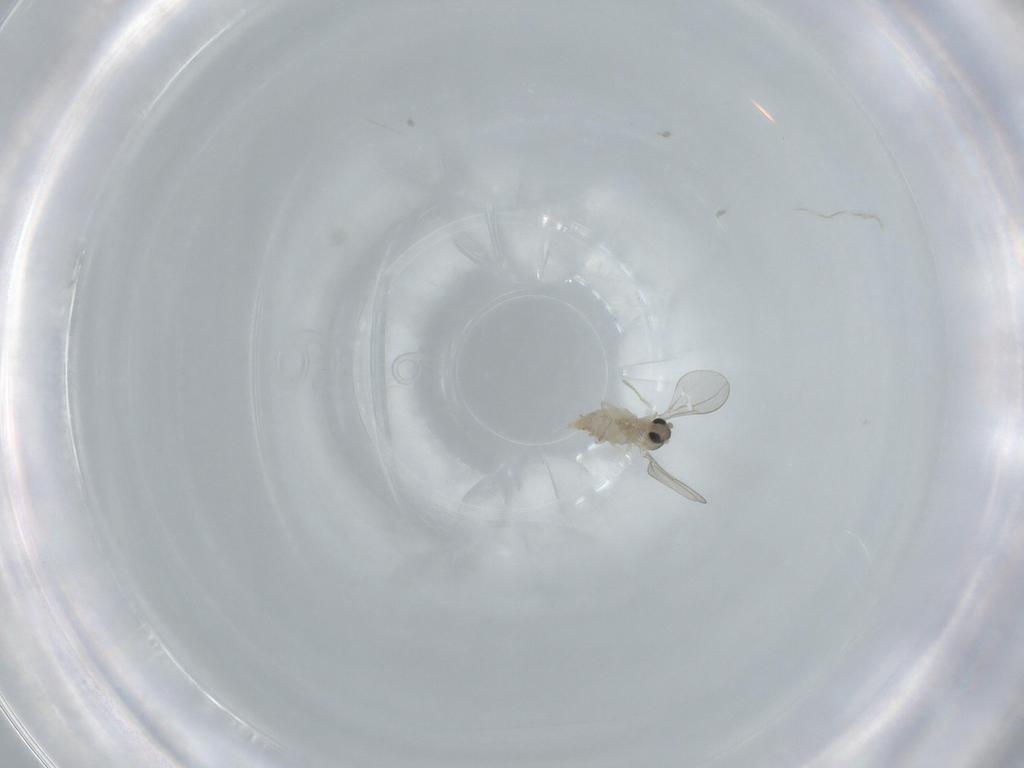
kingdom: Animalia
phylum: Arthropoda
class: Insecta
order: Diptera
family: Cecidomyiidae
